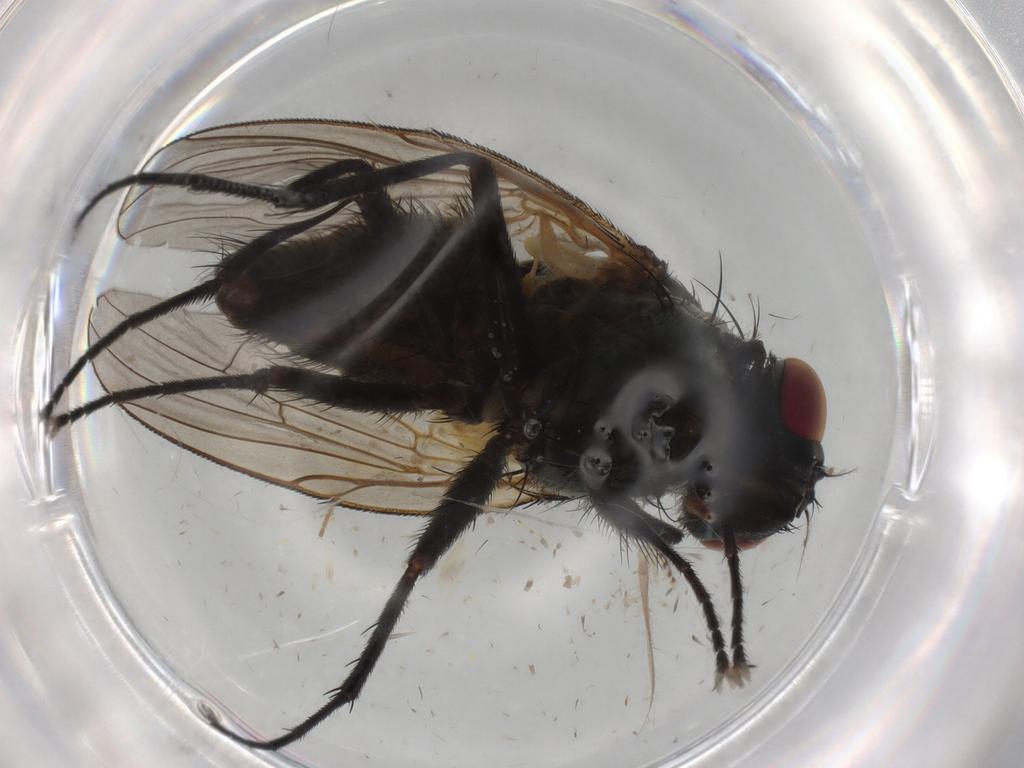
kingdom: Animalia
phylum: Arthropoda
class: Insecta
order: Diptera
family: Muscidae
